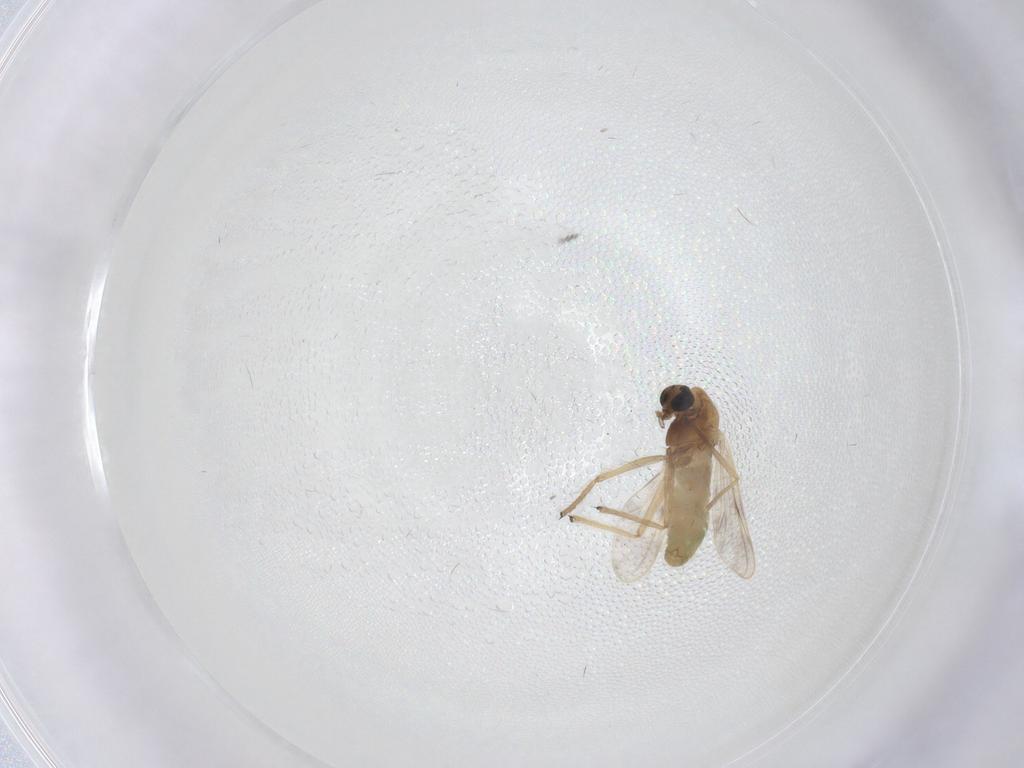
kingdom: Animalia
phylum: Arthropoda
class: Insecta
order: Diptera
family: Chironomidae
